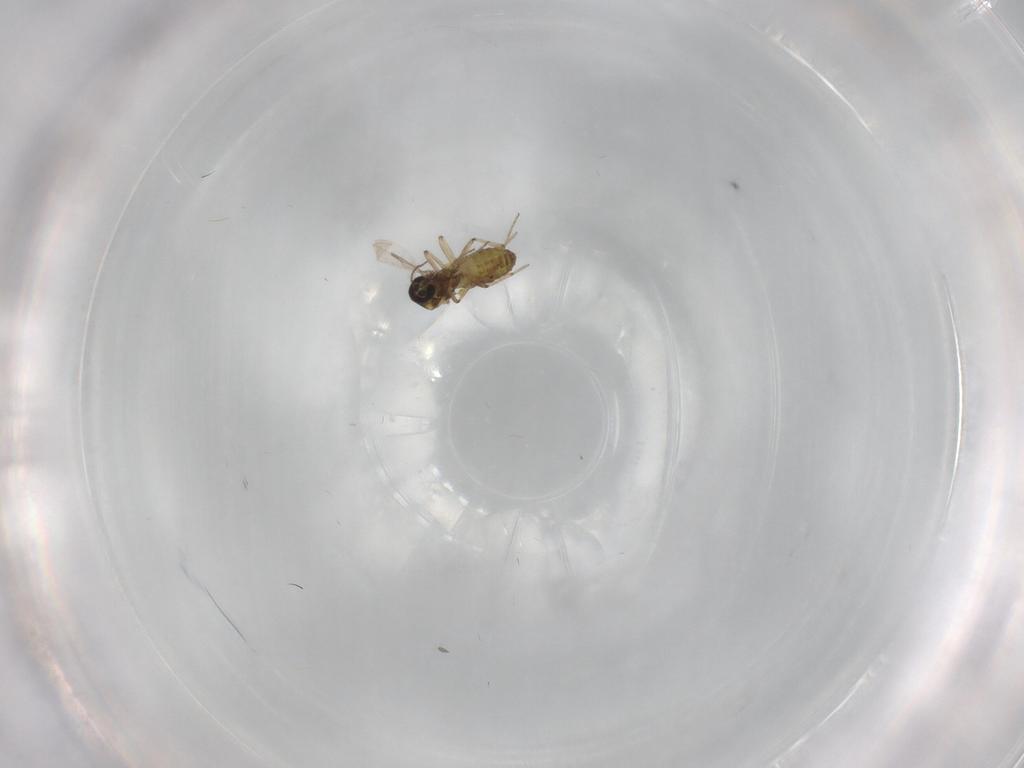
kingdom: Animalia
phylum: Arthropoda
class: Insecta
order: Diptera
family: Ceratopogonidae
